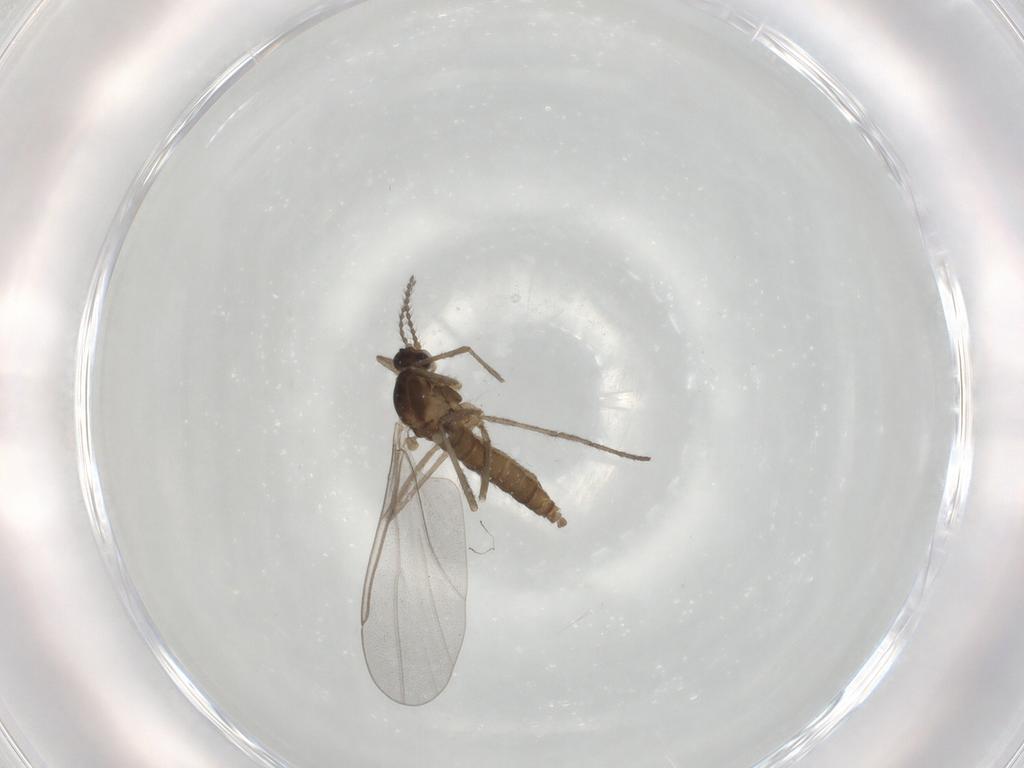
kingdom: Animalia
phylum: Arthropoda
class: Insecta
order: Diptera
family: Cecidomyiidae
